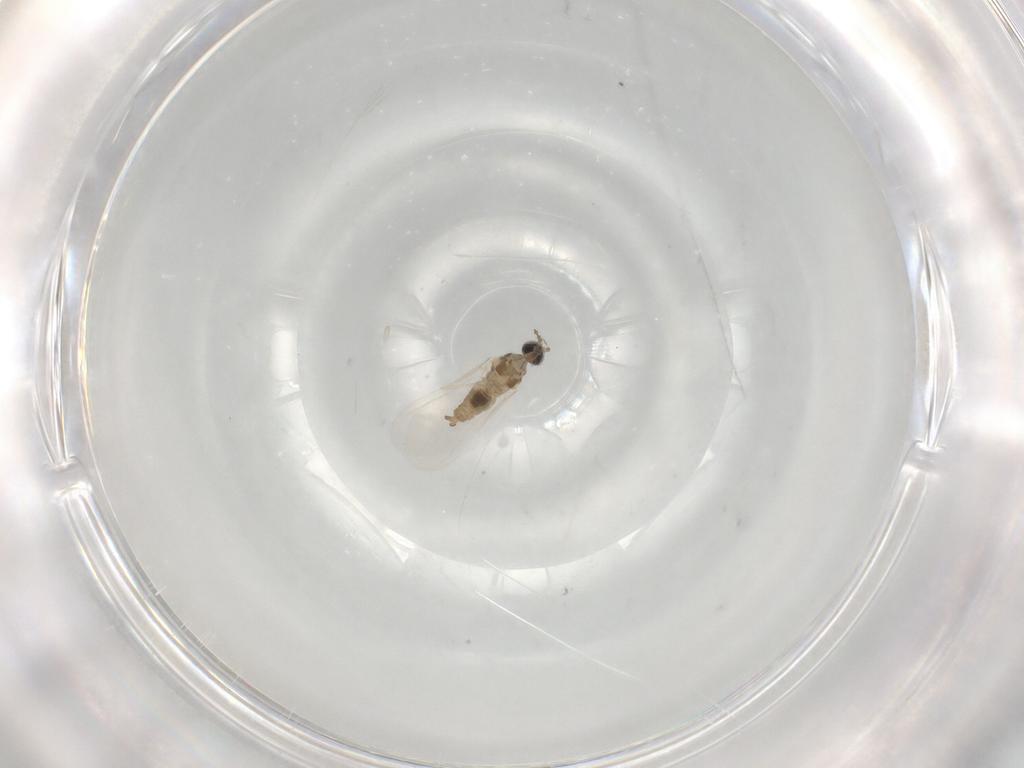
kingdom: Animalia
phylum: Arthropoda
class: Insecta
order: Diptera
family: Cecidomyiidae
